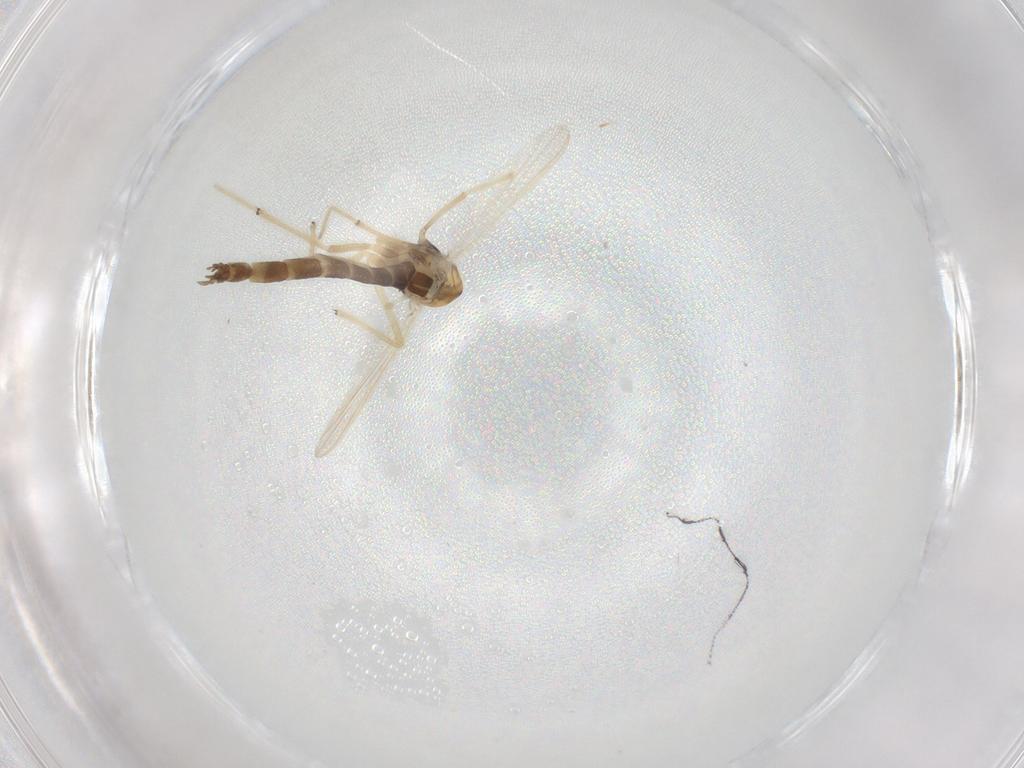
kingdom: Animalia
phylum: Arthropoda
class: Insecta
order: Diptera
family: Chironomidae
